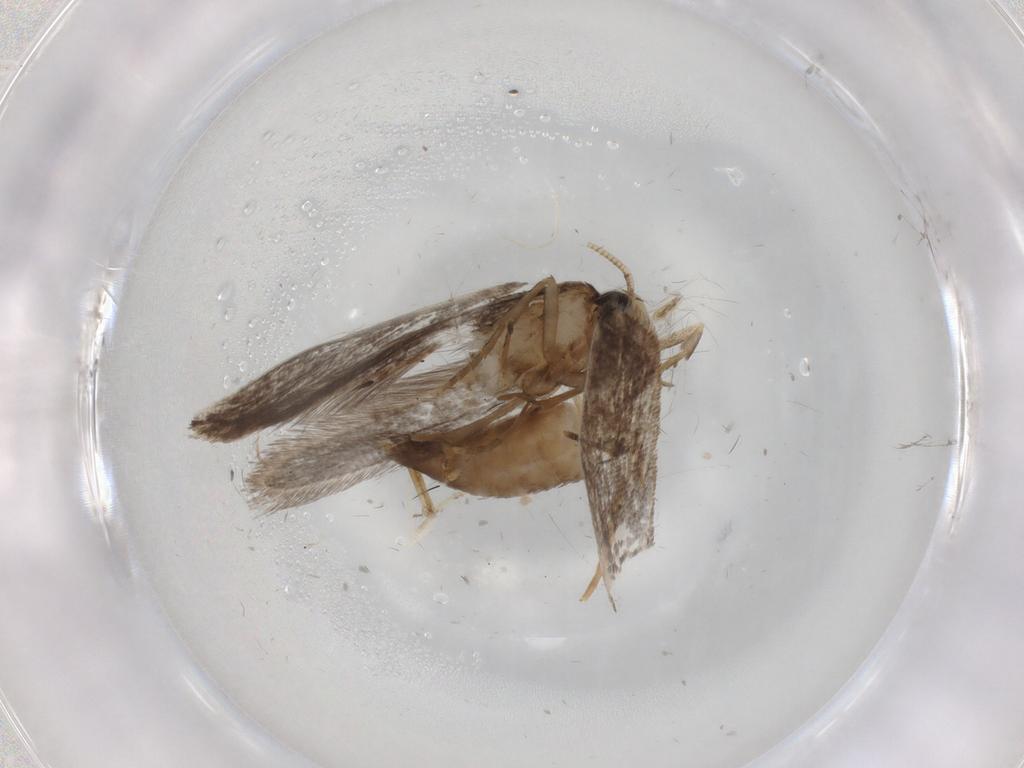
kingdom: Animalia
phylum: Arthropoda
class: Insecta
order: Lepidoptera
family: Tineidae
